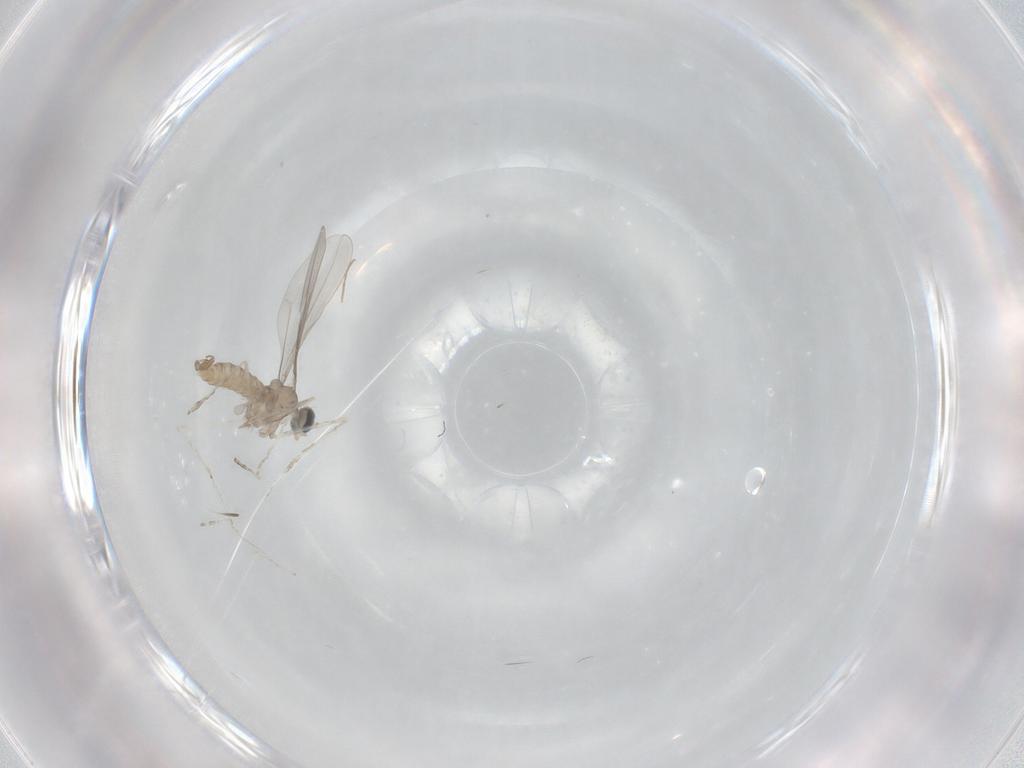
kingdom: Animalia
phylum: Arthropoda
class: Insecta
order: Diptera
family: Cecidomyiidae
